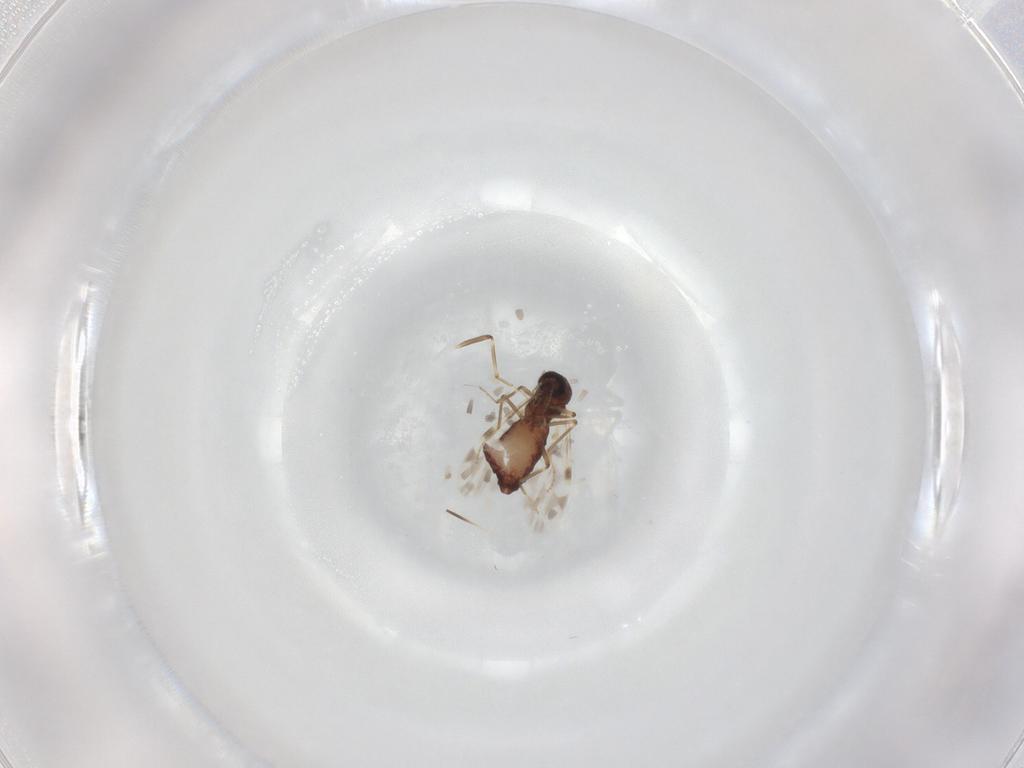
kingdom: Animalia
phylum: Arthropoda
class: Insecta
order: Diptera
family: Ceratopogonidae
